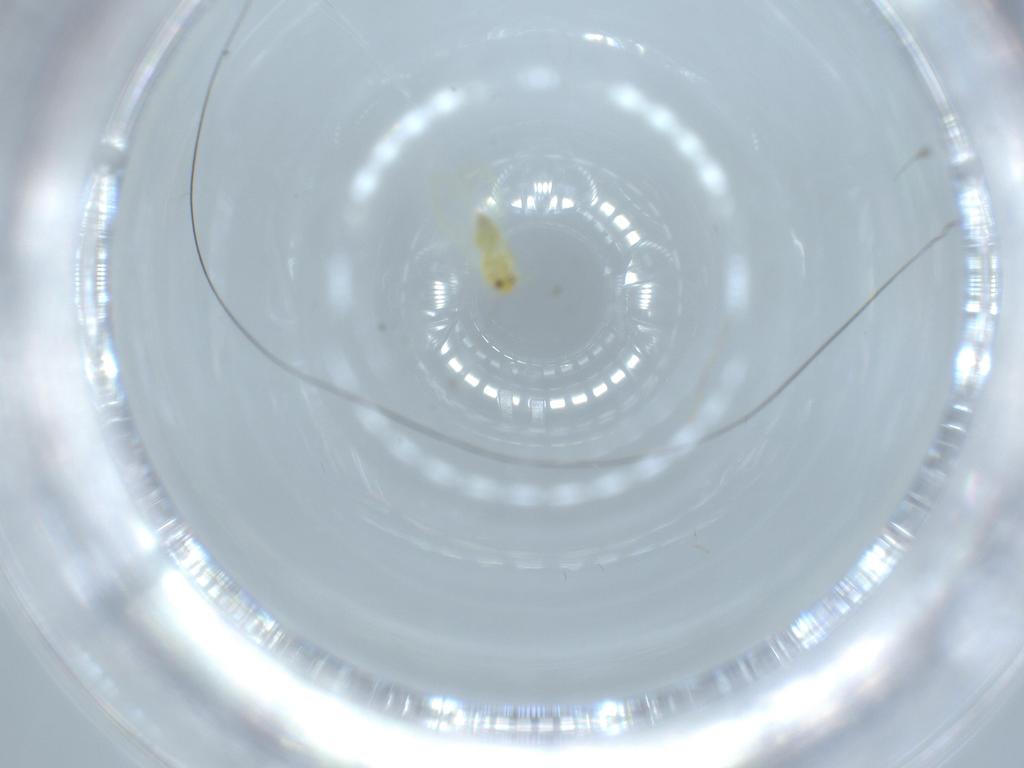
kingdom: Animalia
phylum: Arthropoda
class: Insecta
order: Hemiptera
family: Aleyrodidae
